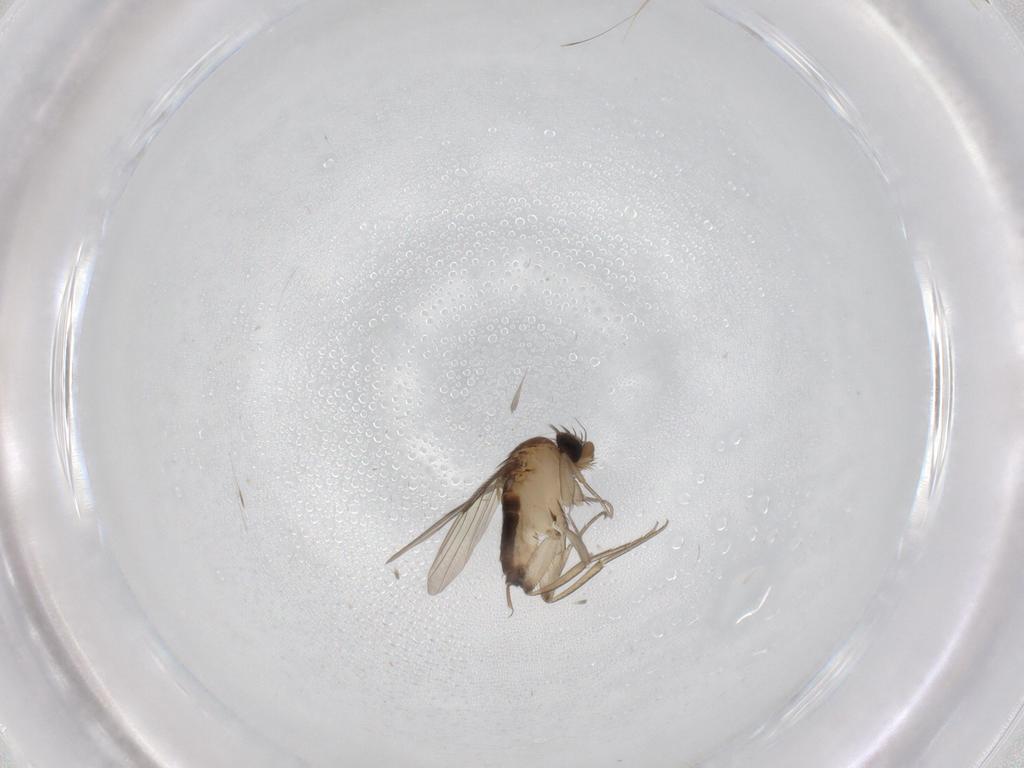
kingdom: Animalia
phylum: Arthropoda
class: Insecta
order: Diptera
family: Phoridae
